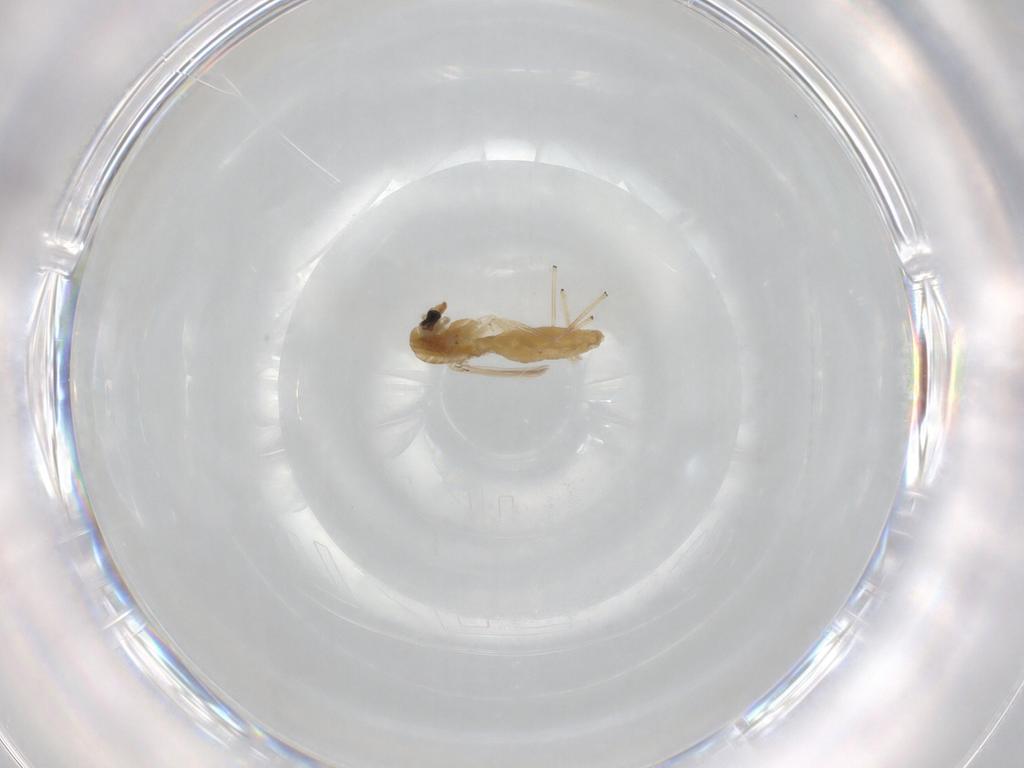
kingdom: Animalia
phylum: Arthropoda
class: Insecta
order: Diptera
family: Chironomidae
